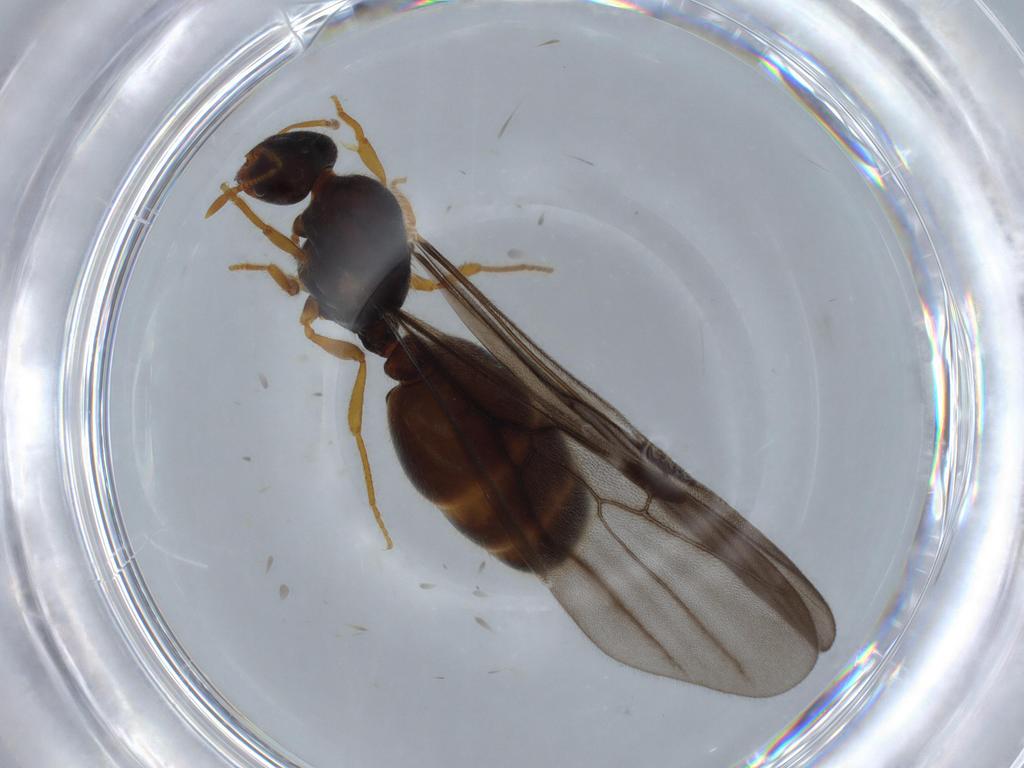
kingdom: Animalia
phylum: Arthropoda
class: Insecta
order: Hymenoptera
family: Formicidae
